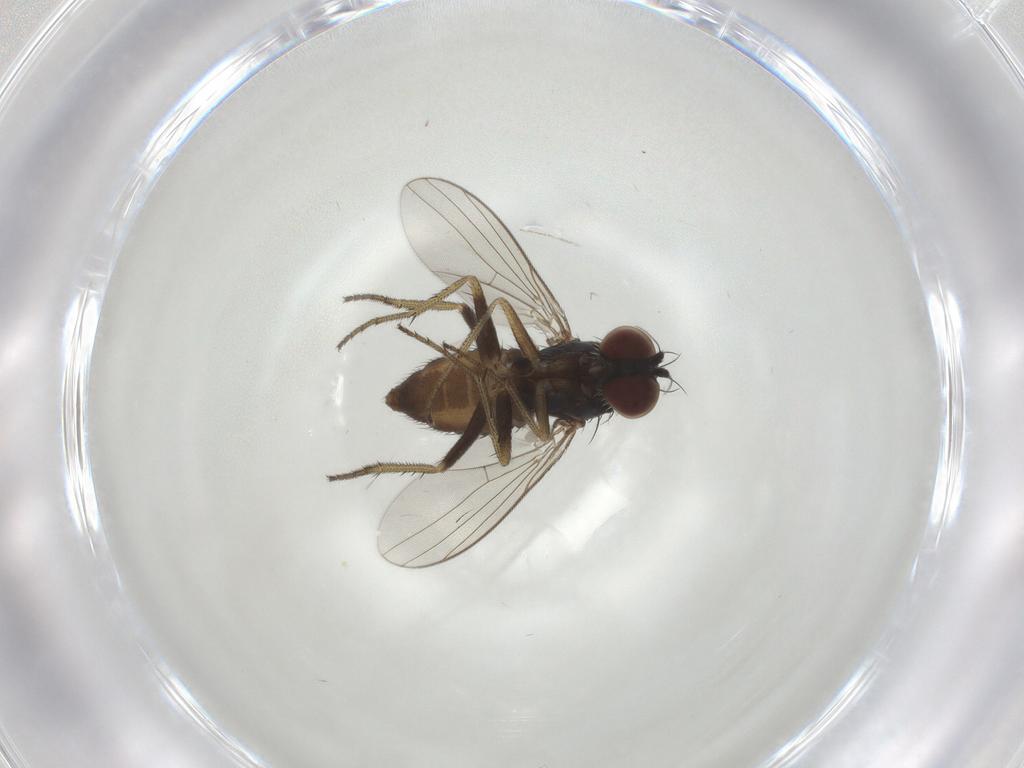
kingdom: Animalia
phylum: Arthropoda
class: Insecta
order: Diptera
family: Dolichopodidae
